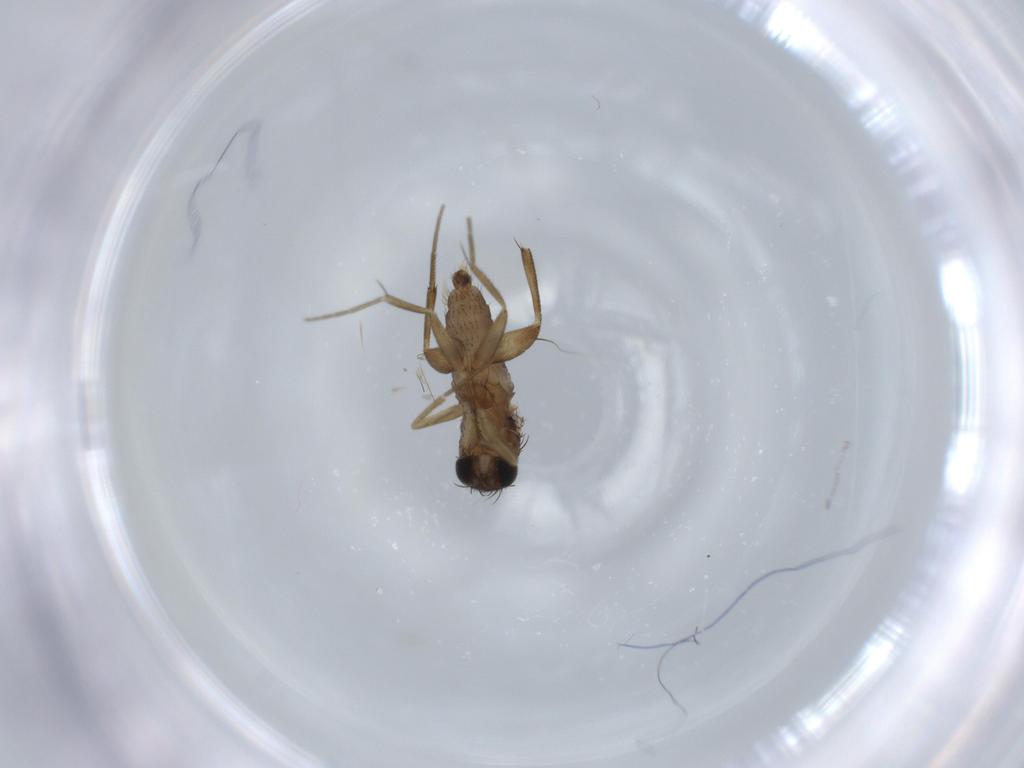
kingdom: Animalia
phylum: Arthropoda
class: Insecta
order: Diptera
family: Phoridae
